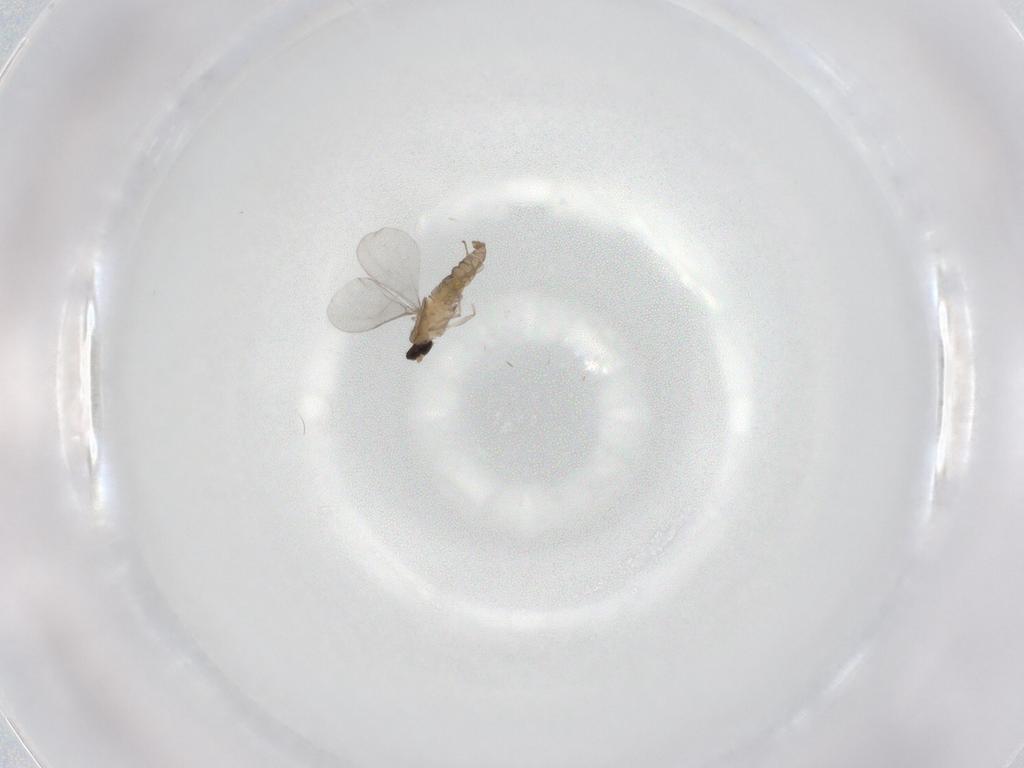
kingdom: Animalia
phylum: Arthropoda
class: Insecta
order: Diptera
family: Cecidomyiidae
